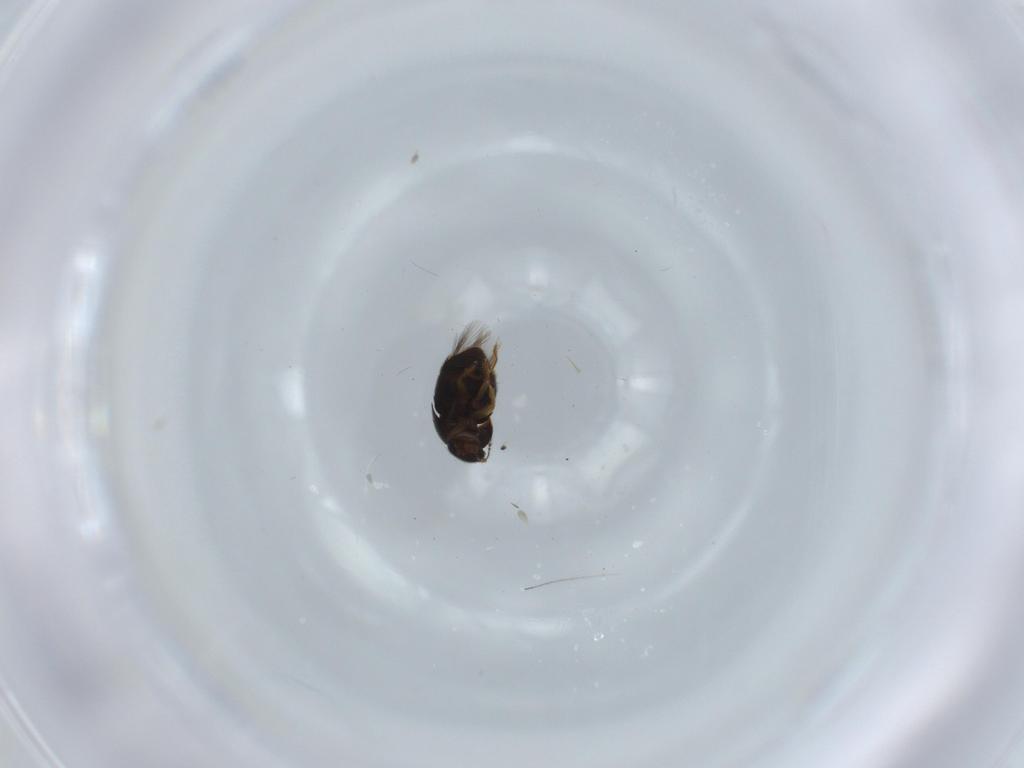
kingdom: Animalia
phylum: Arthropoda
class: Insecta
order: Coleoptera
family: Ptiliidae
